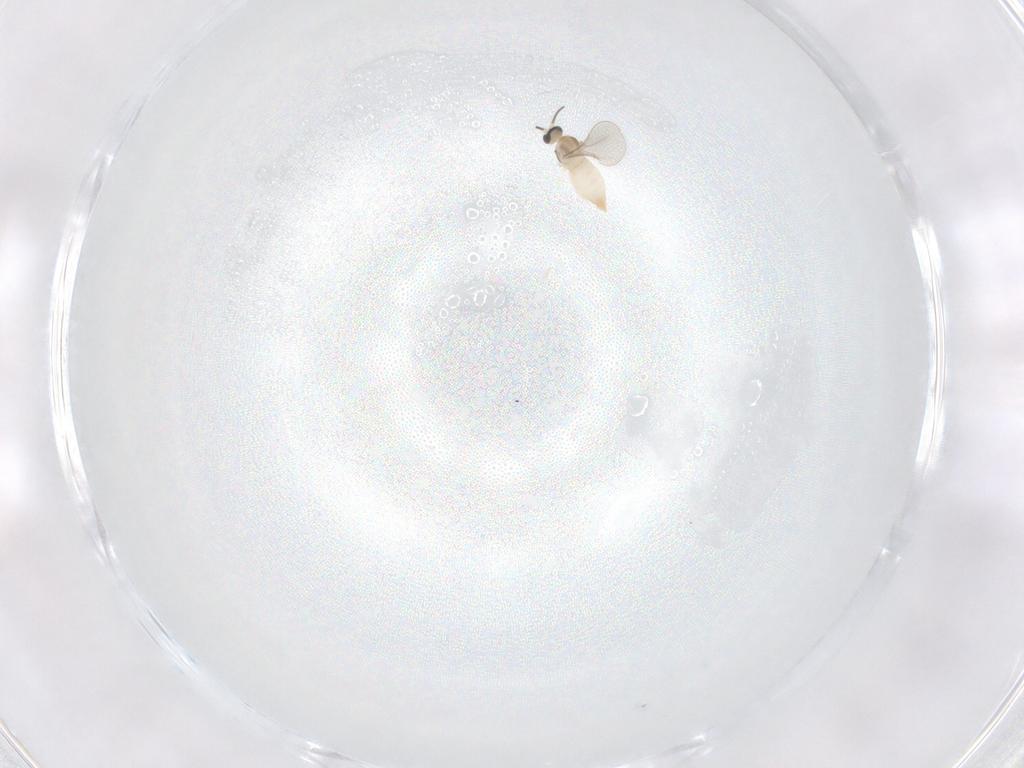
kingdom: Animalia
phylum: Arthropoda
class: Insecta
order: Diptera
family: Cecidomyiidae
